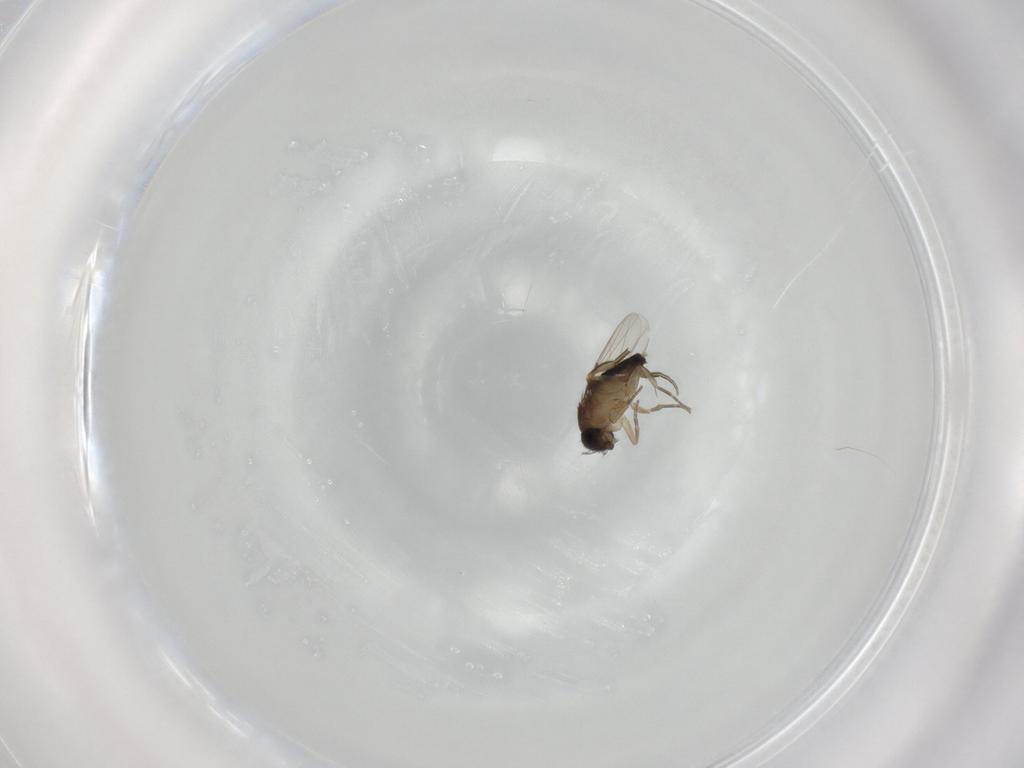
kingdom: Animalia
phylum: Arthropoda
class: Insecta
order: Diptera
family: Phoridae
